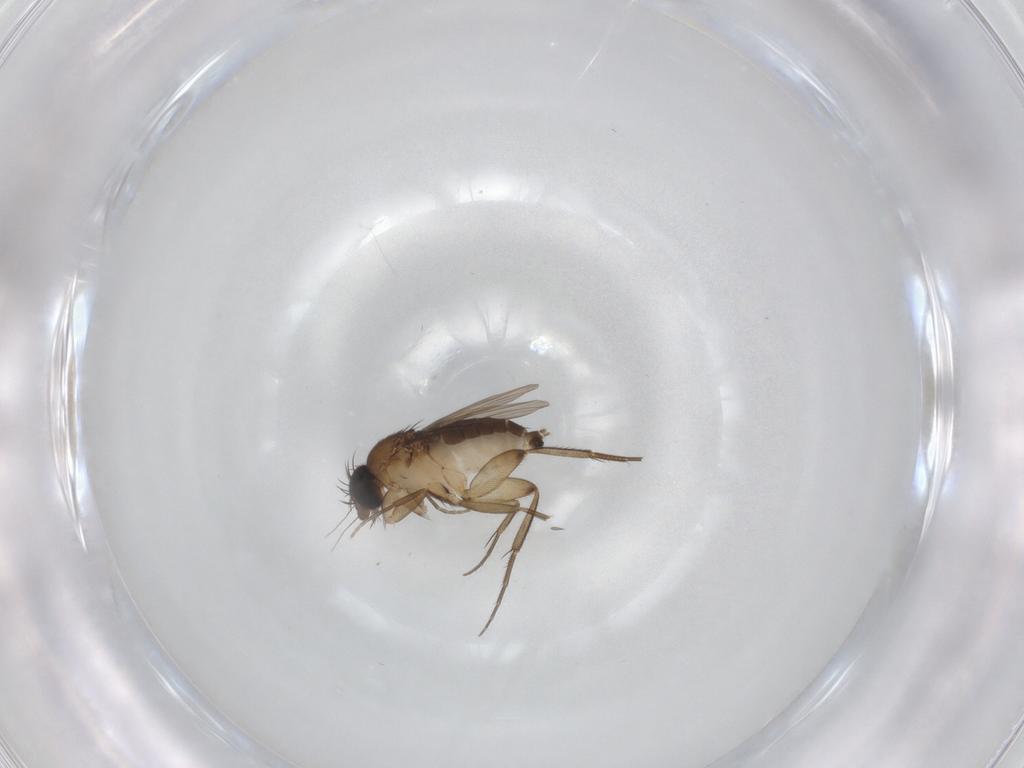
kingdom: Animalia
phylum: Arthropoda
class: Insecta
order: Diptera
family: Phoridae
